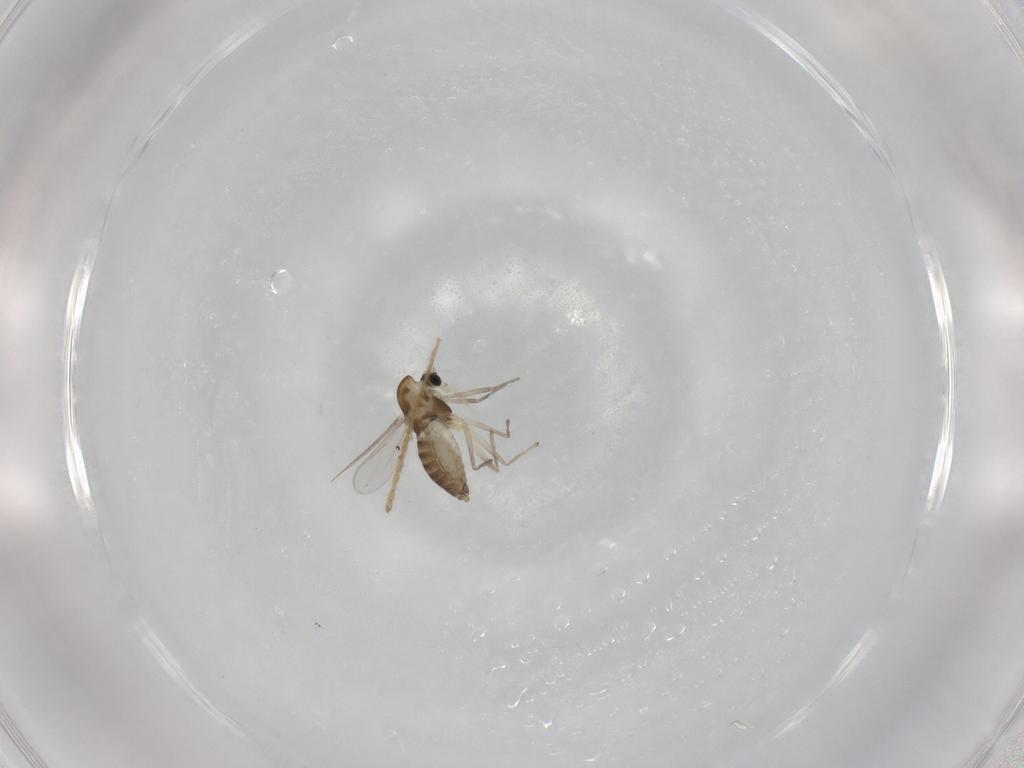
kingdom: Animalia
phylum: Arthropoda
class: Insecta
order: Diptera
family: Limoniidae
